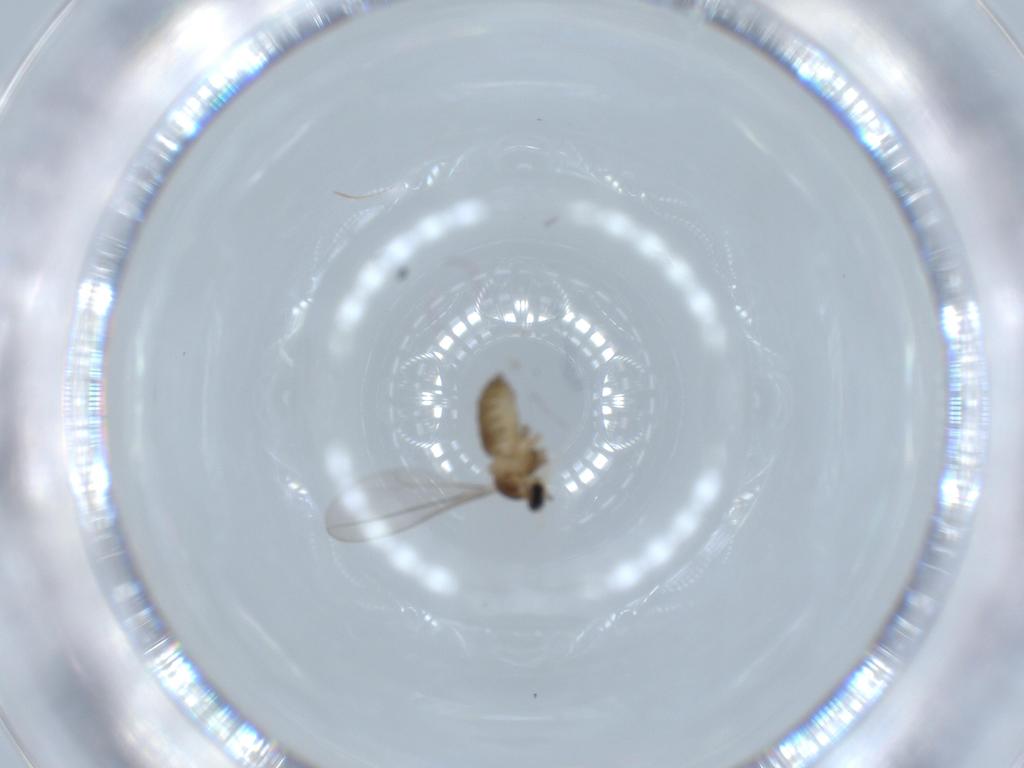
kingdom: Animalia
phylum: Arthropoda
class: Insecta
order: Diptera
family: Cecidomyiidae
